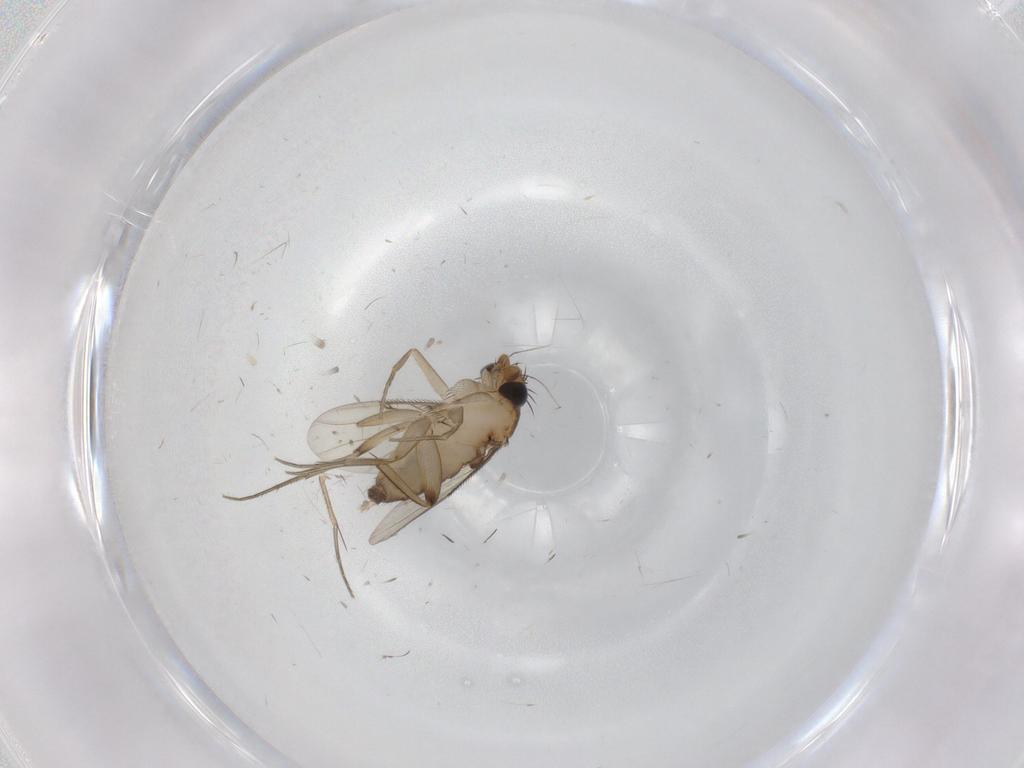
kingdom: Animalia
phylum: Arthropoda
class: Insecta
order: Diptera
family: Phoridae
